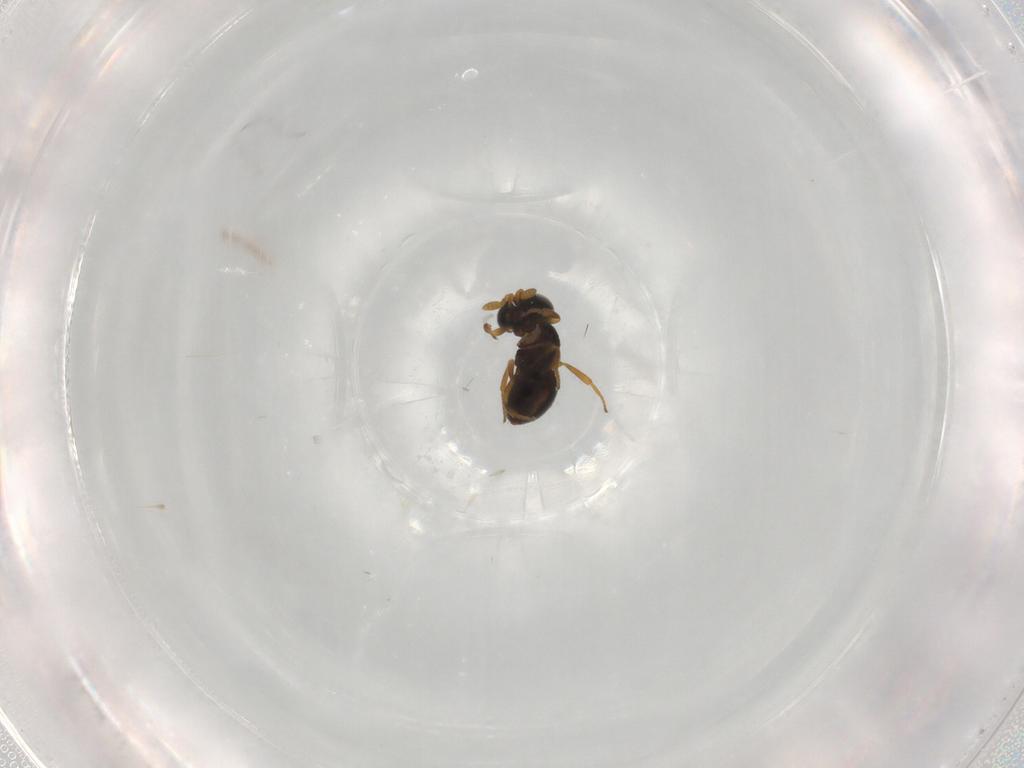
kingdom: Animalia
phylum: Arthropoda
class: Insecta
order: Hymenoptera
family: Scelionidae
